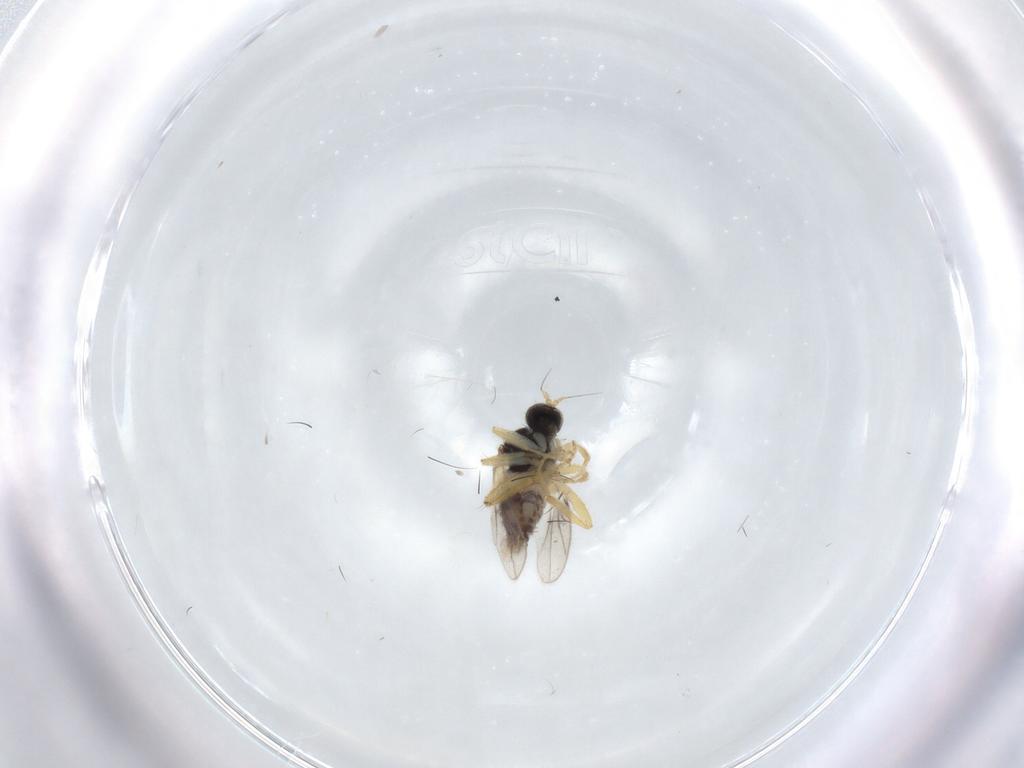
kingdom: Animalia
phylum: Arthropoda
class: Insecta
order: Diptera
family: Hybotidae
